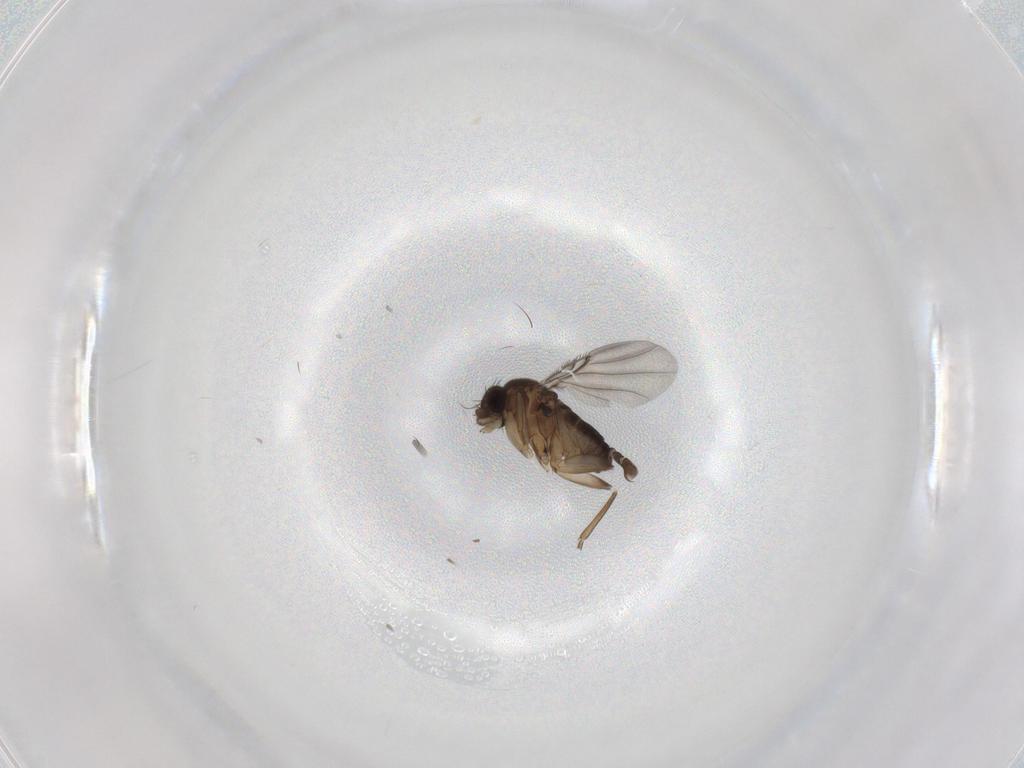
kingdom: Animalia
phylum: Arthropoda
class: Insecta
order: Diptera
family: Phoridae
